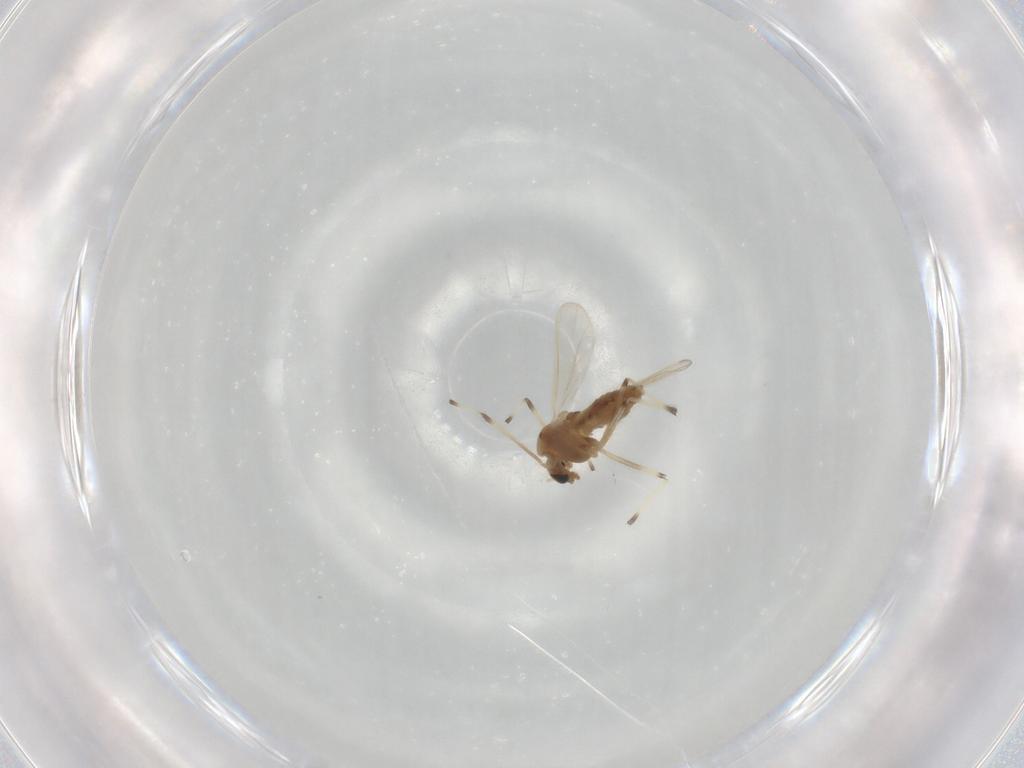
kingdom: Animalia
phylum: Arthropoda
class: Insecta
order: Diptera
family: Chironomidae
